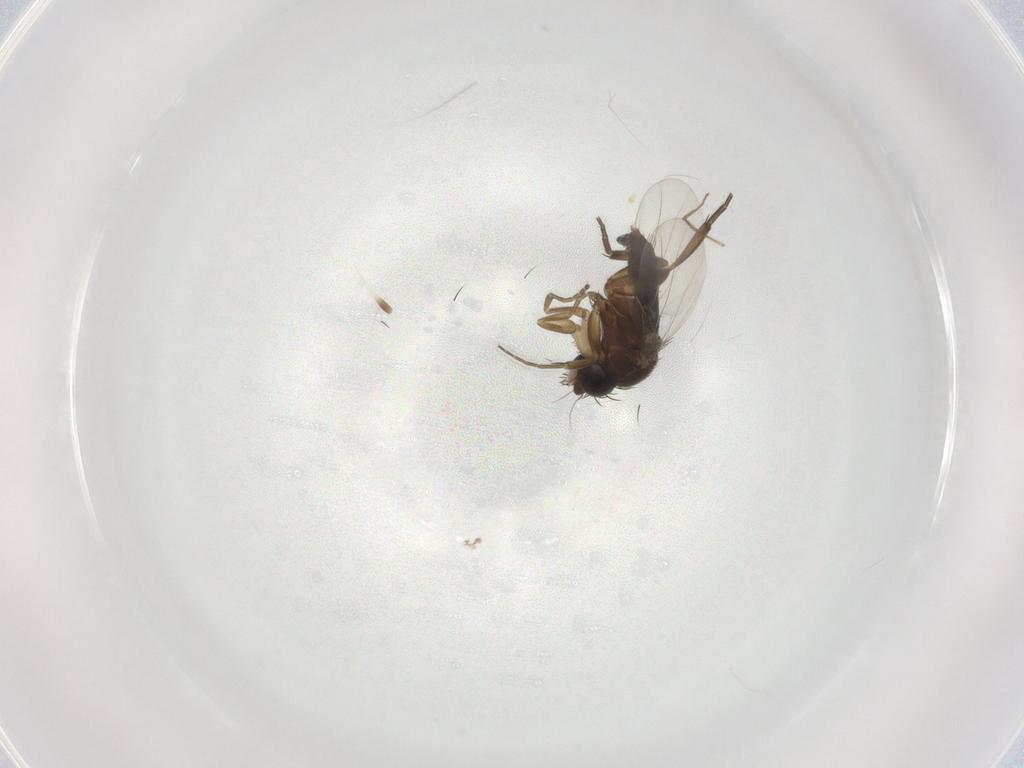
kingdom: Animalia
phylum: Arthropoda
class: Insecta
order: Diptera
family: Phoridae
